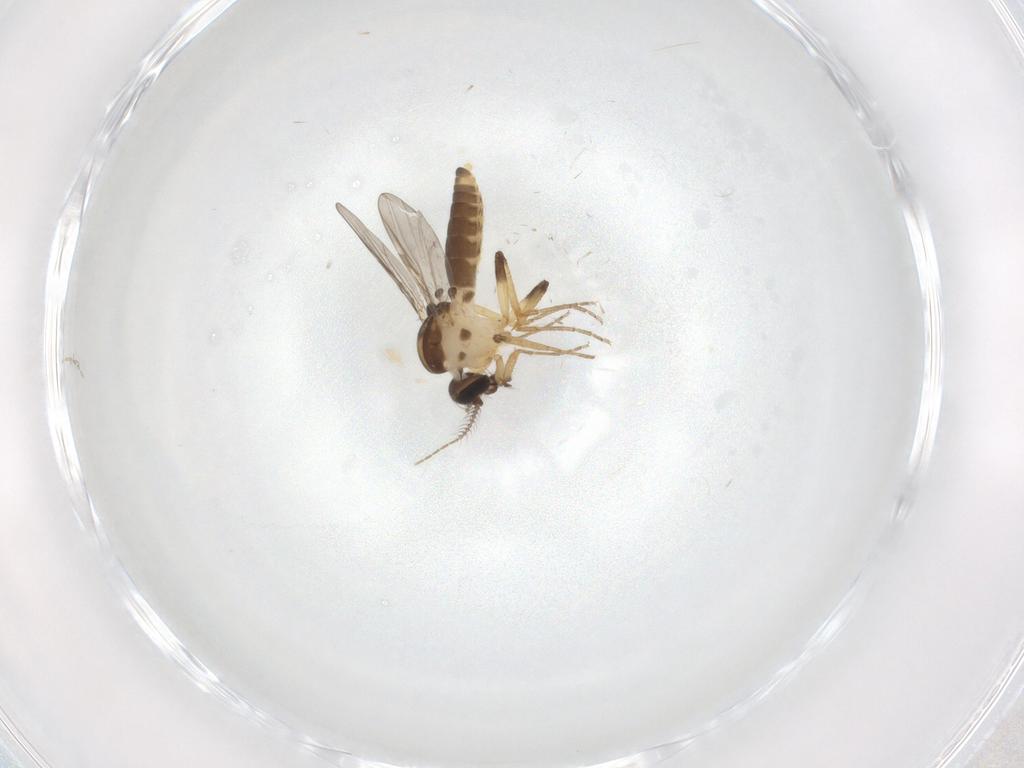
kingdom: Animalia
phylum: Arthropoda
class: Insecta
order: Diptera
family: Ceratopogonidae
